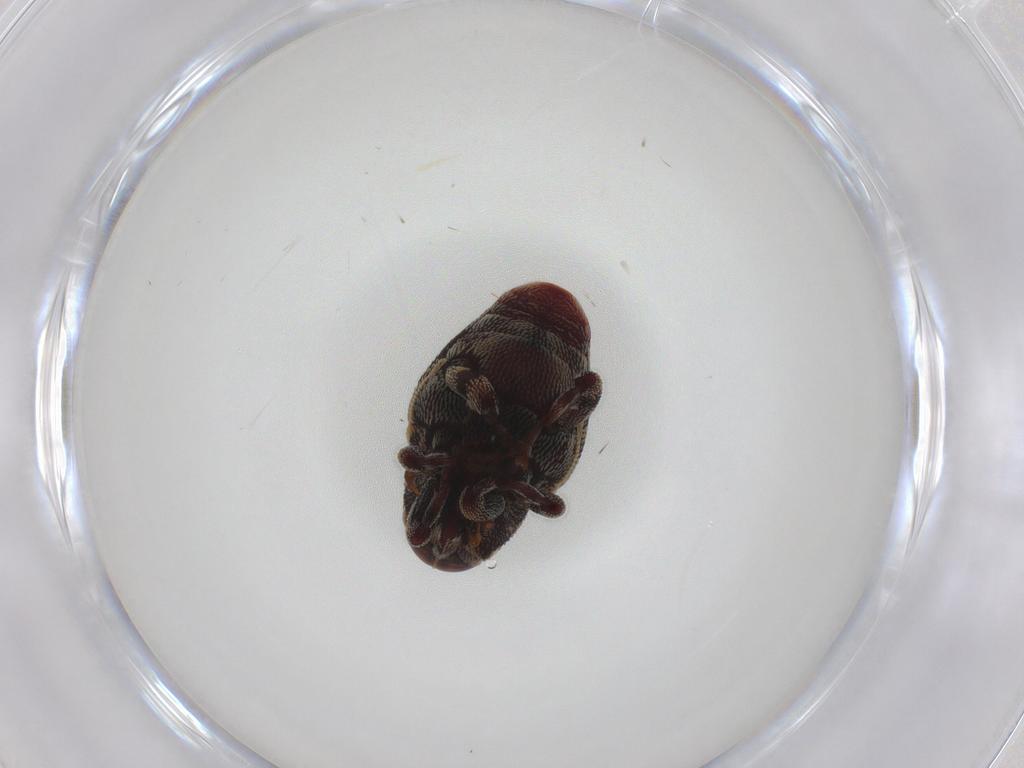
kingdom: Animalia
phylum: Arthropoda
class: Insecta
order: Coleoptera
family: Curculionidae
